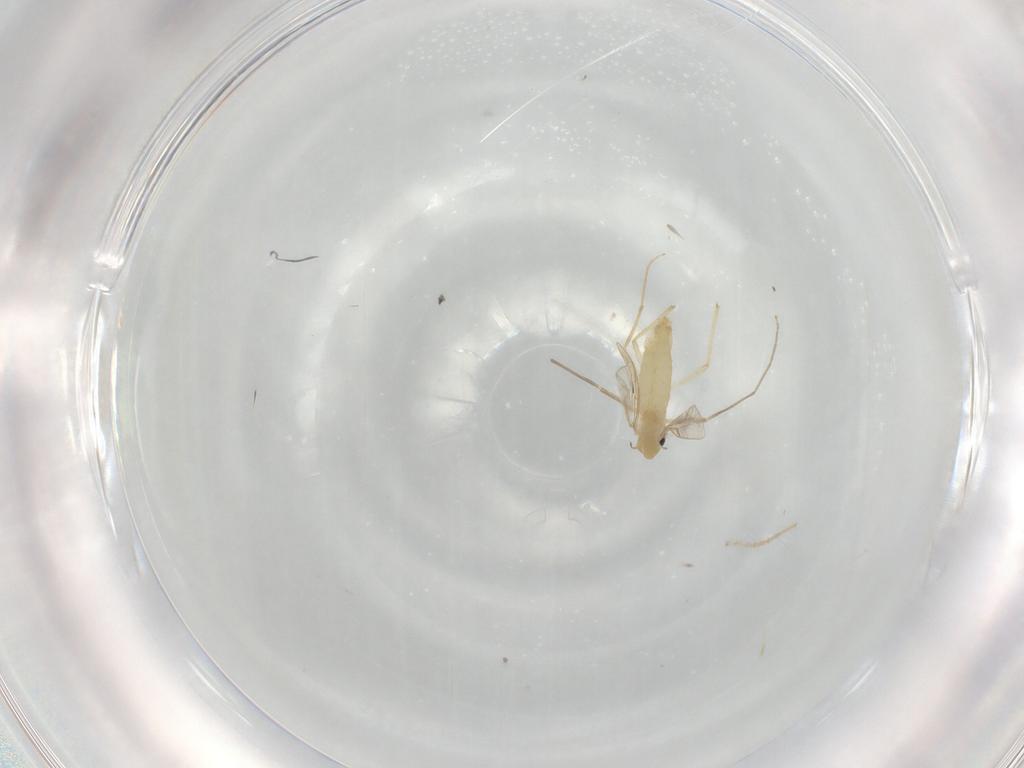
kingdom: Animalia
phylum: Arthropoda
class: Insecta
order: Diptera
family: Chironomidae
